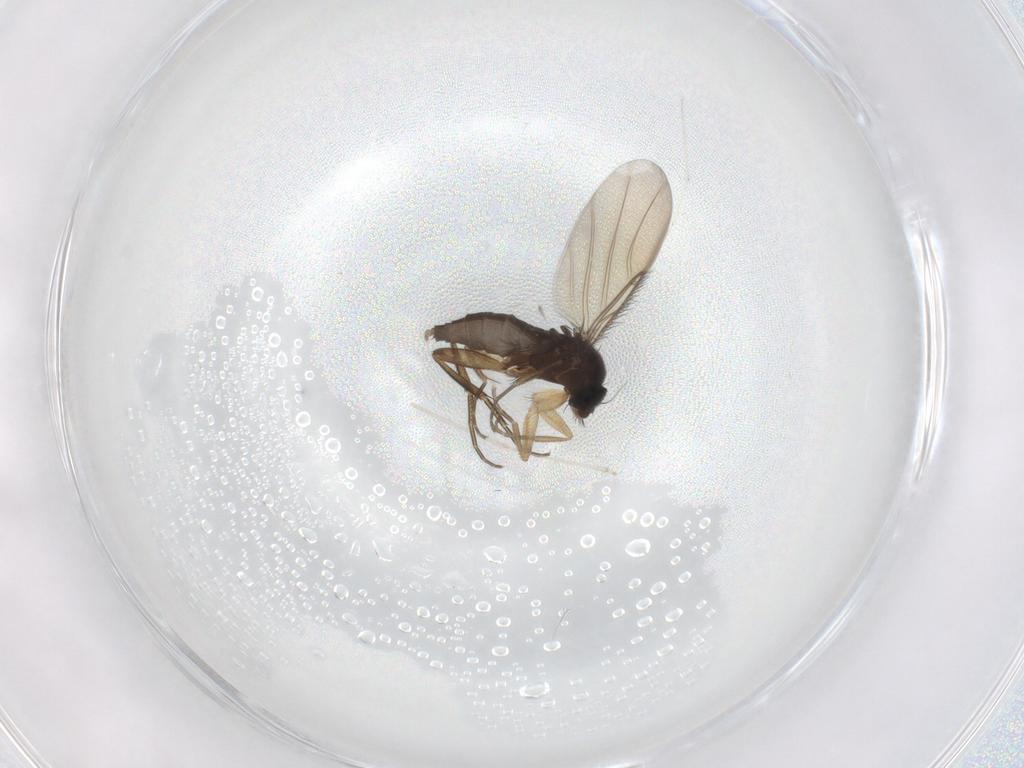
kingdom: Animalia
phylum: Arthropoda
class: Insecta
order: Diptera
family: Phoridae
